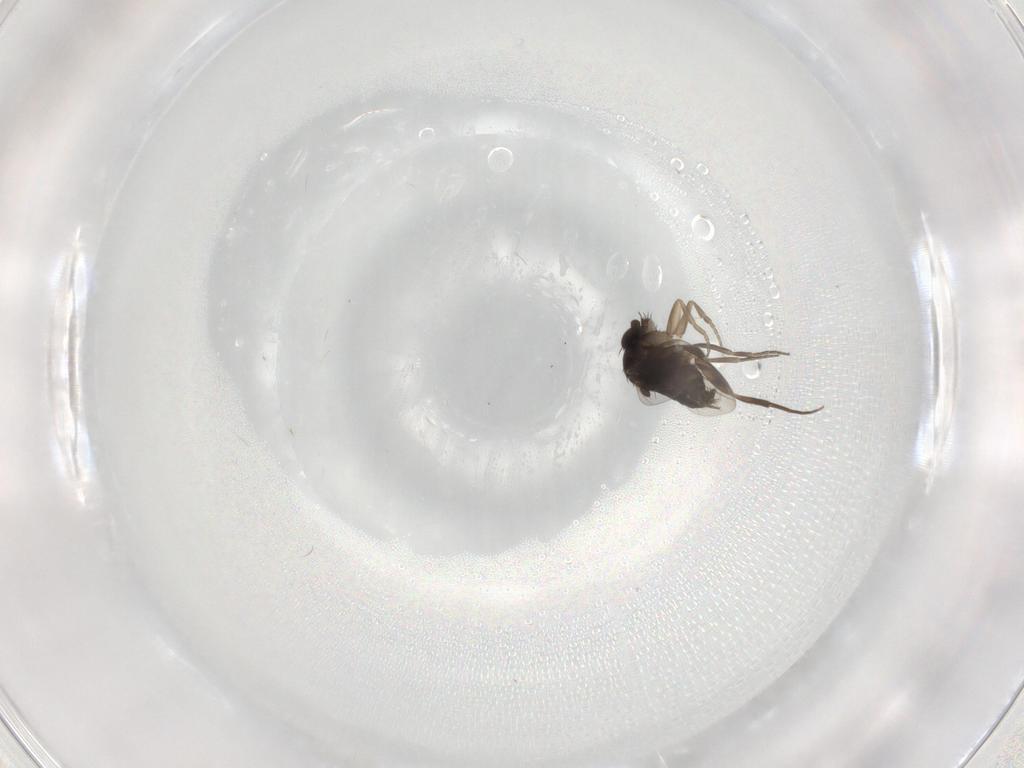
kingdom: Animalia
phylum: Arthropoda
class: Insecta
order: Diptera
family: Phoridae
